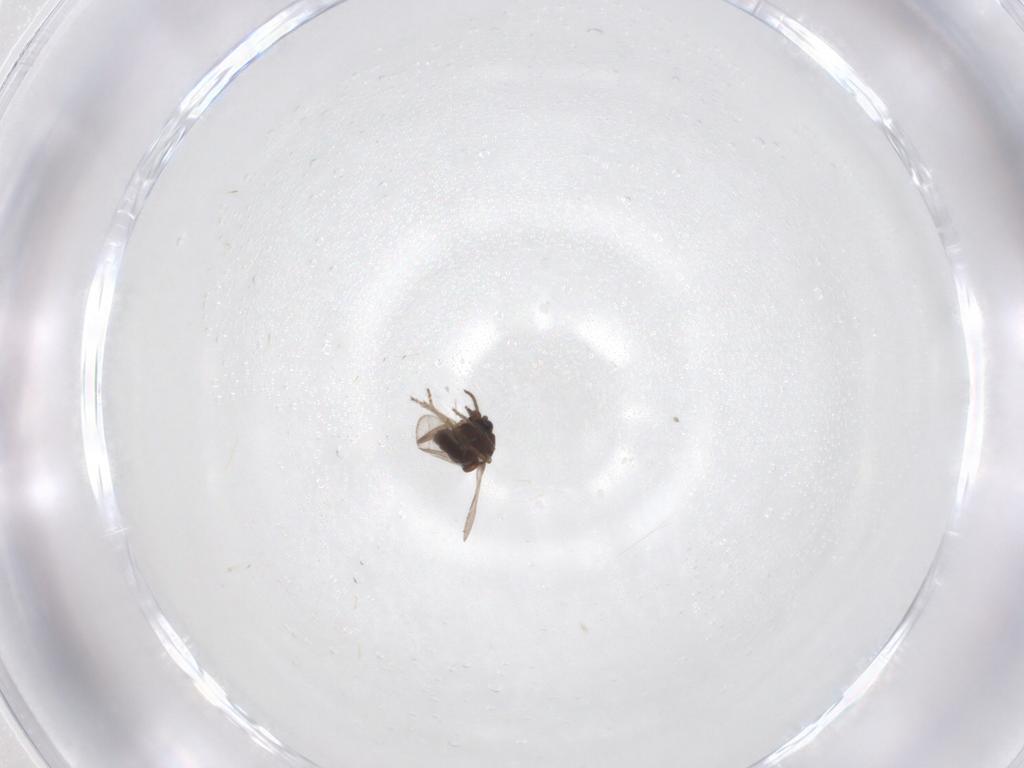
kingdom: Animalia
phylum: Arthropoda
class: Insecta
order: Diptera
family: Ceratopogonidae
